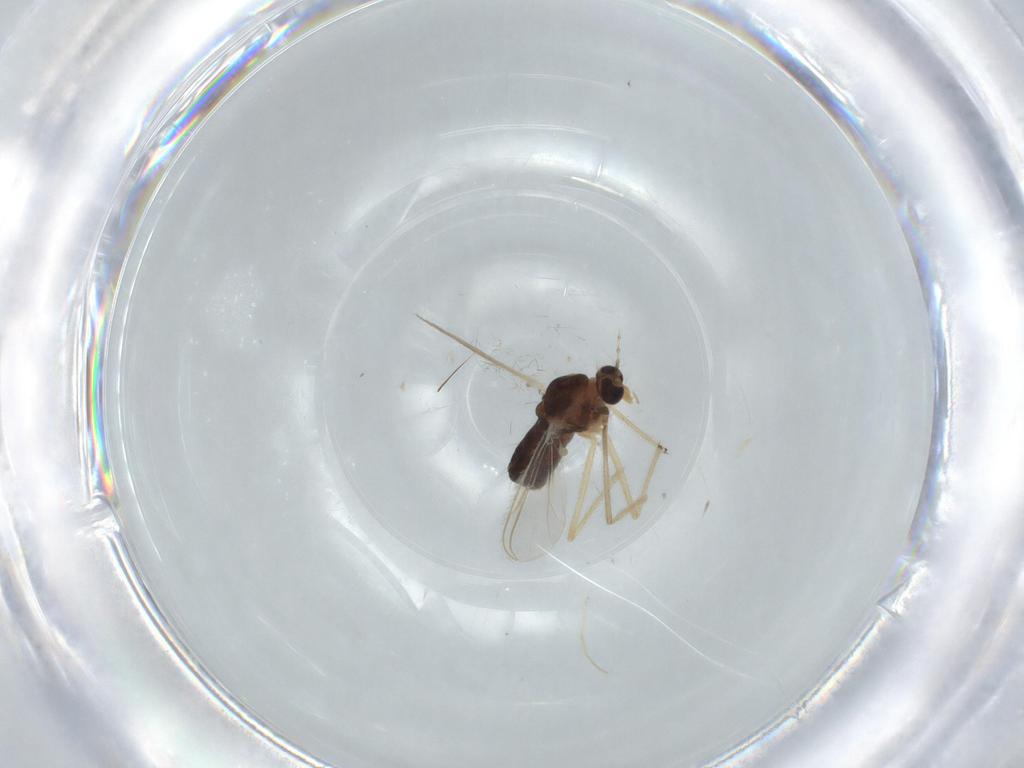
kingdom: Animalia
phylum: Arthropoda
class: Insecta
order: Diptera
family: Chironomidae
